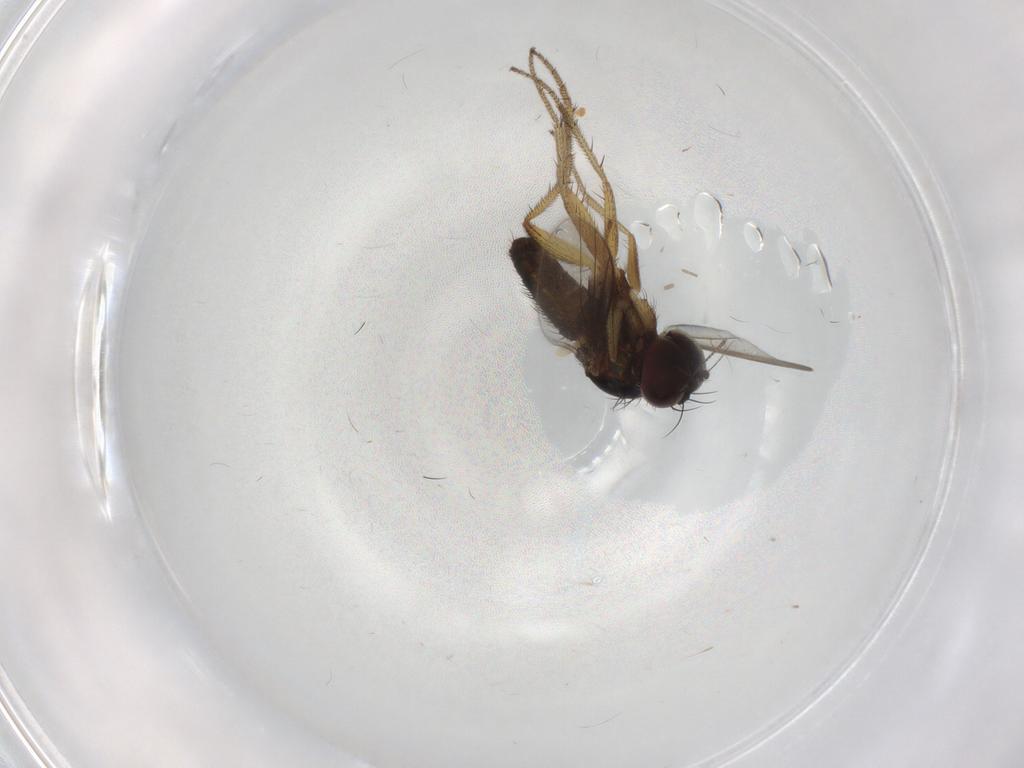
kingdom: Animalia
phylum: Arthropoda
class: Insecta
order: Diptera
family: Chironomidae
